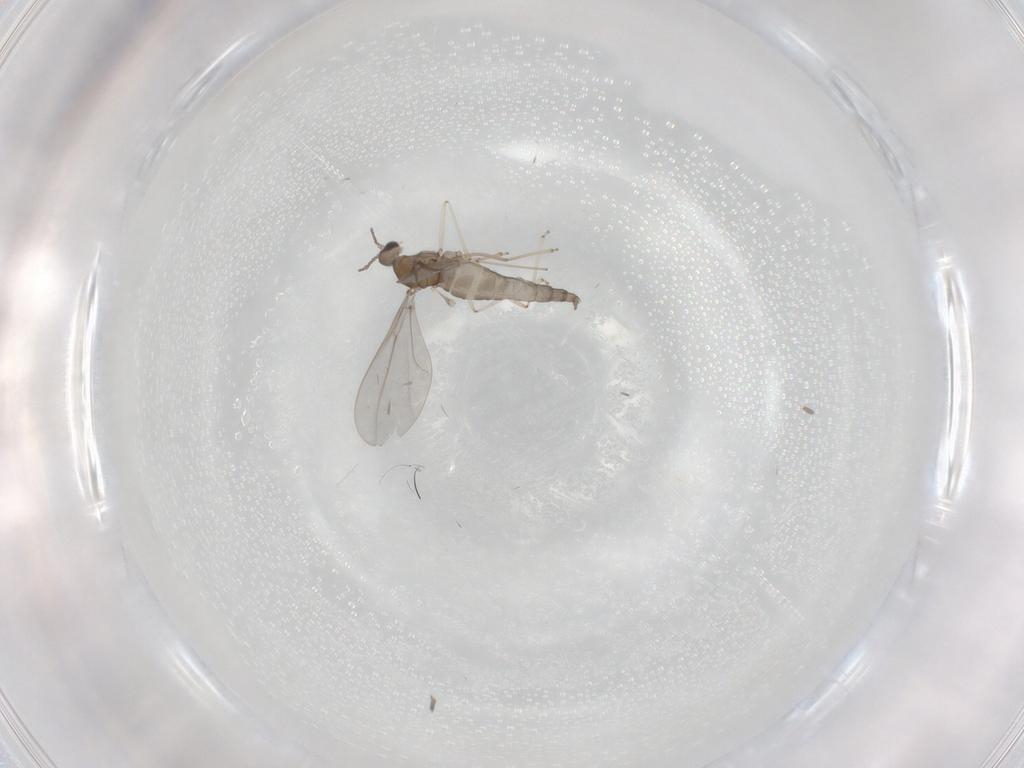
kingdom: Animalia
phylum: Arthropoda
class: Insecta
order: Diptera
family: Cecidomyiidae
